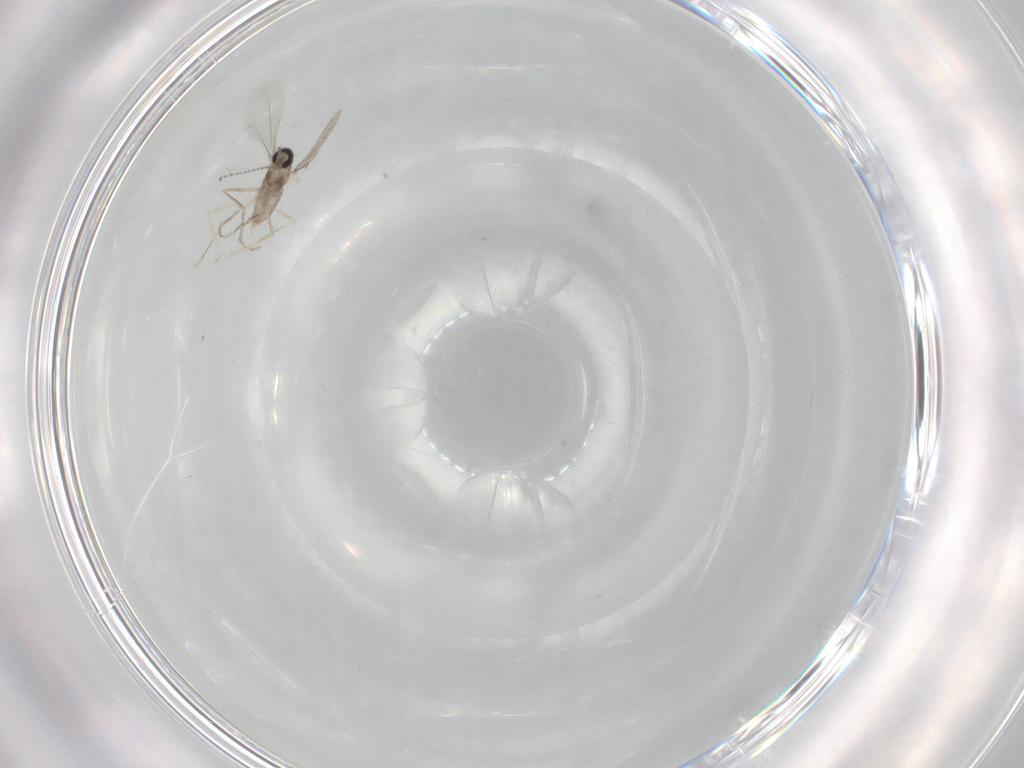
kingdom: Animalia
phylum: Arthropoda
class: Insecta
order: Diptera
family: Cecidomyiidae
